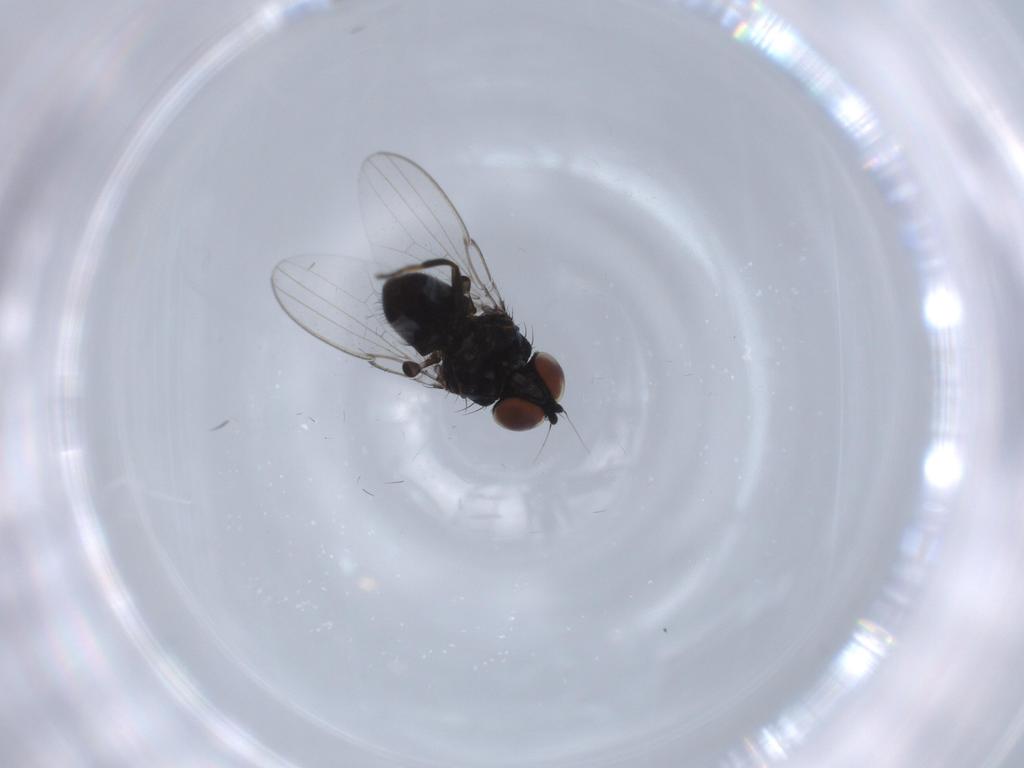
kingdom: Animalia
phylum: Arthropoda
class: Insecta
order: Diptera
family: Milichiidae
